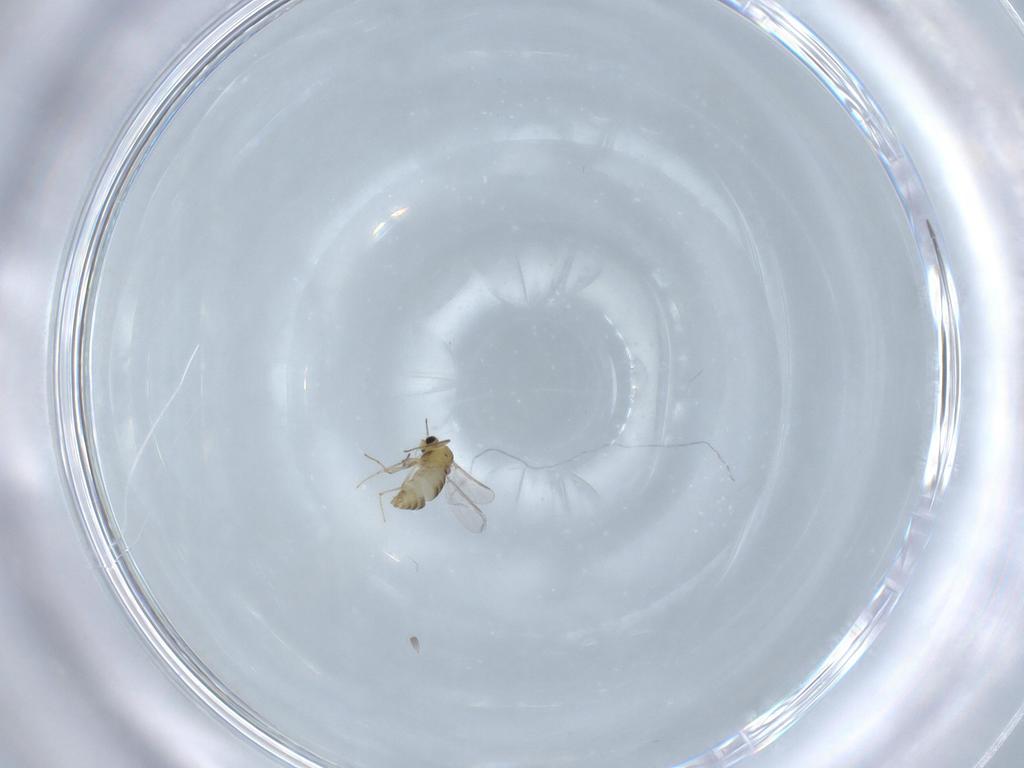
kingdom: Animalia
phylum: Arthropoda
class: Insecta
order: Diptera
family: Chironomidae
